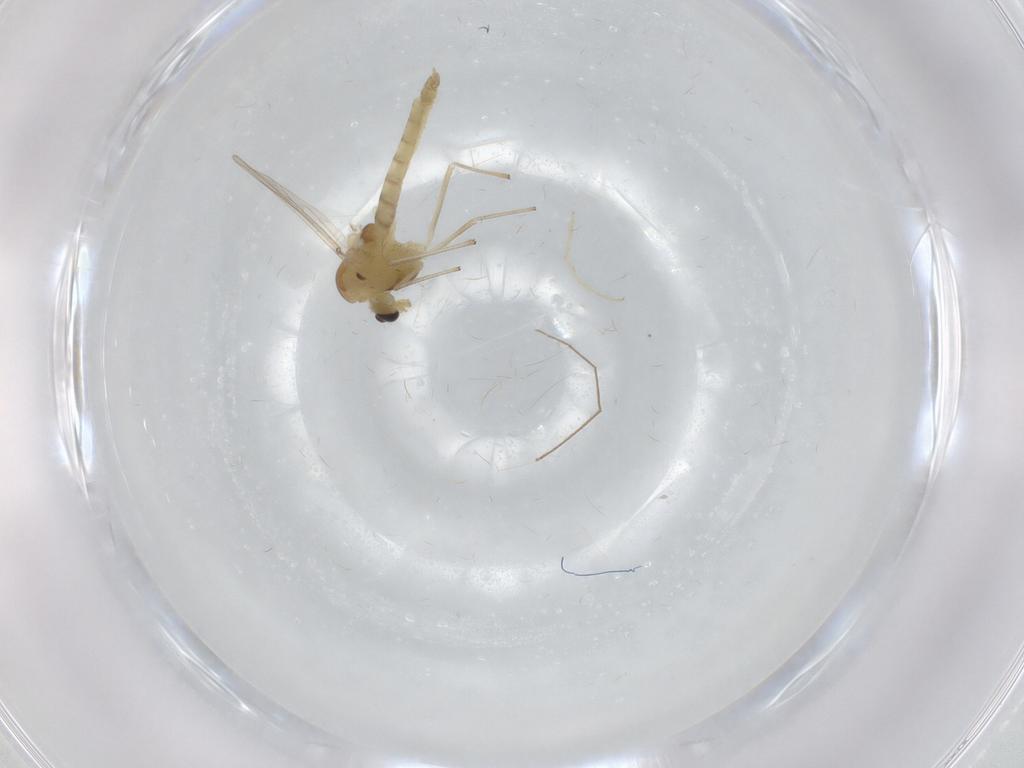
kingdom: Animalia
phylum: Arthropoda
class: Insecta
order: Diptera
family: Chironomidae
